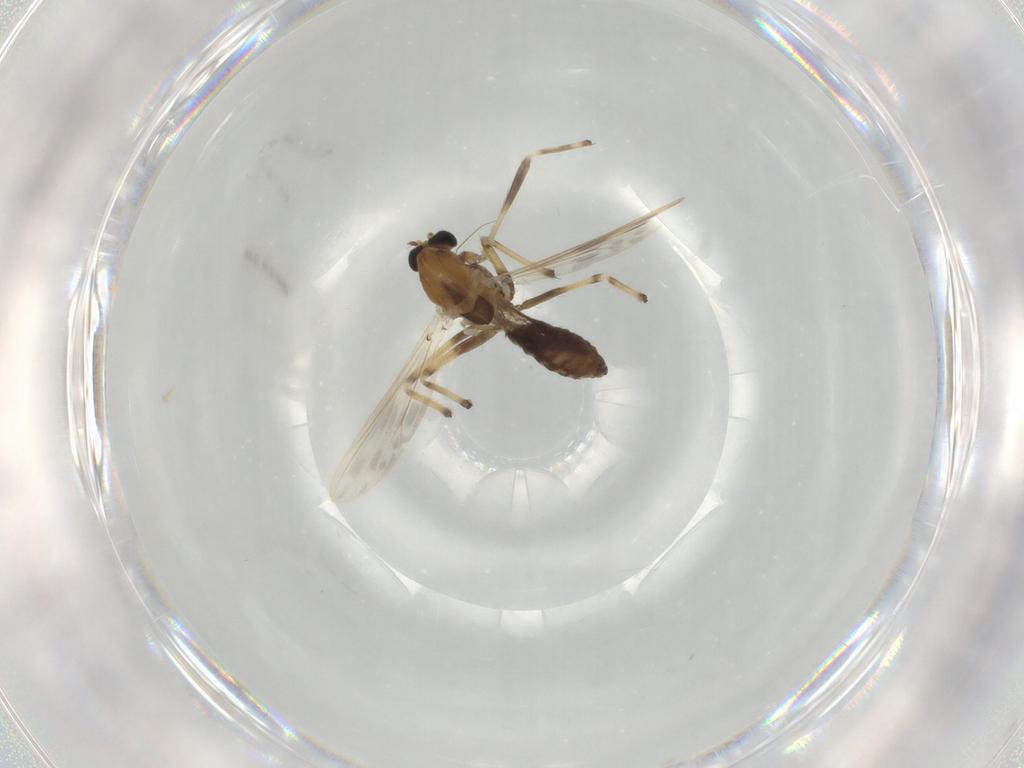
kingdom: Animalia
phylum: Arthropoda
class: Insecta
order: Diptera
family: Chironomidae
